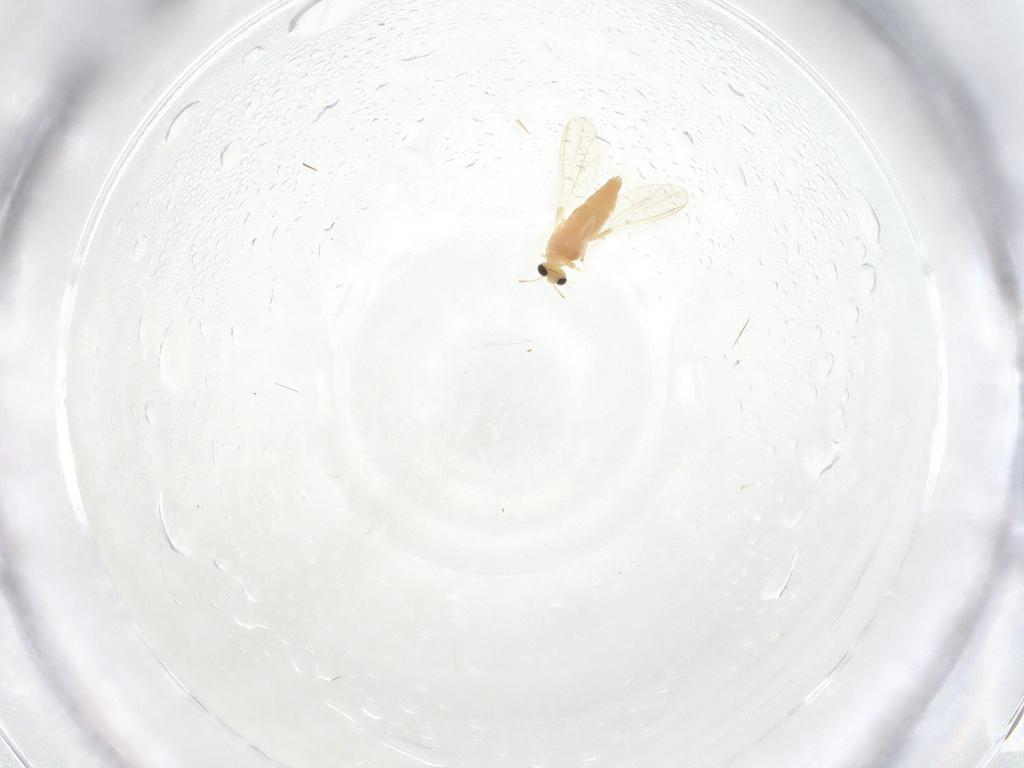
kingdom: Animalia
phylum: Arthropoda
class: Insecta
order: Diptera
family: Chironomidae
